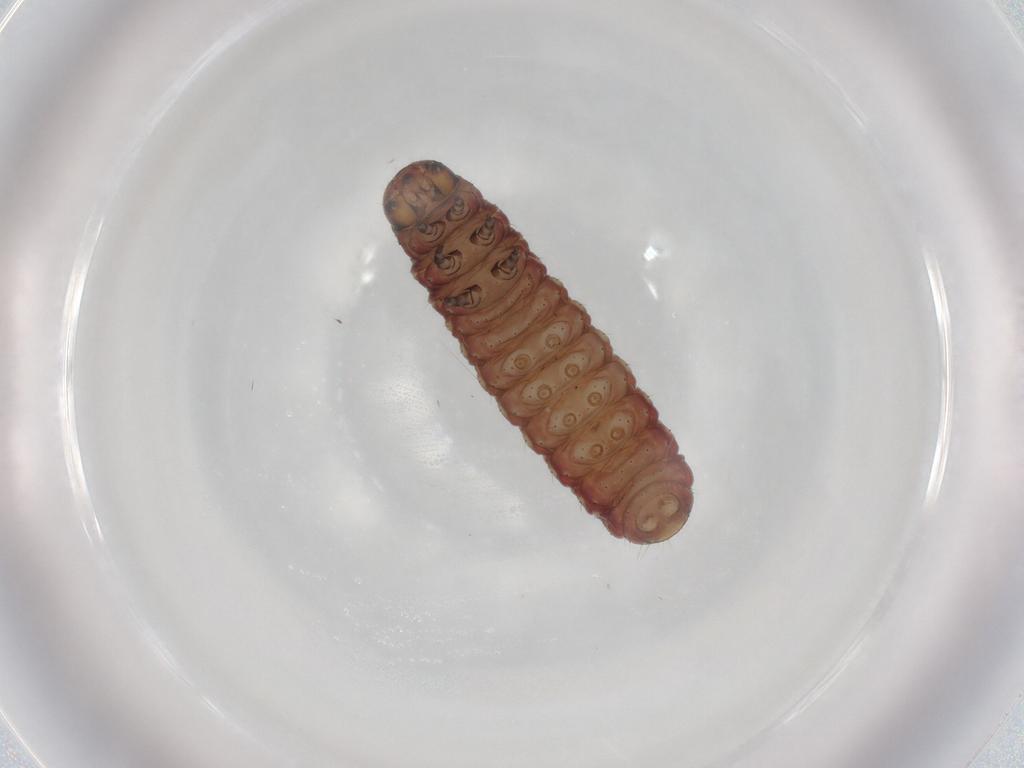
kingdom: Animalia
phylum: Arthropoda
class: Insecta
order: Lepidoptera
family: Noctuidae
